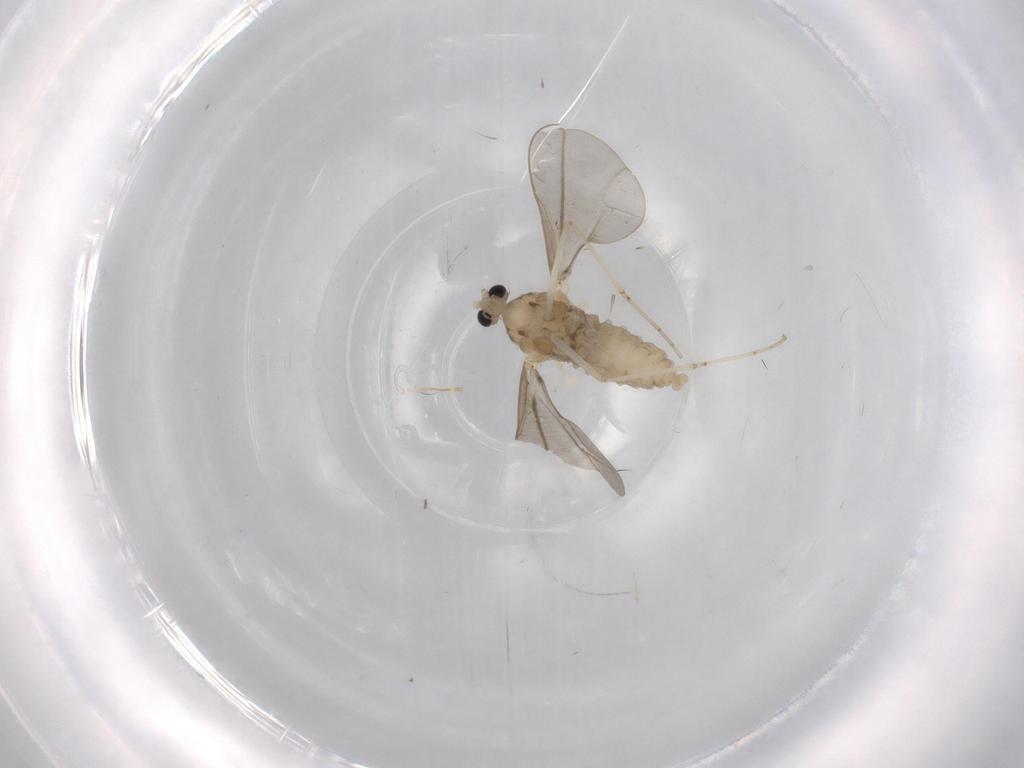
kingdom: Animalia
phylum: Arthropoda
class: Insecta
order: Diptera
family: Cecidomyiidae
